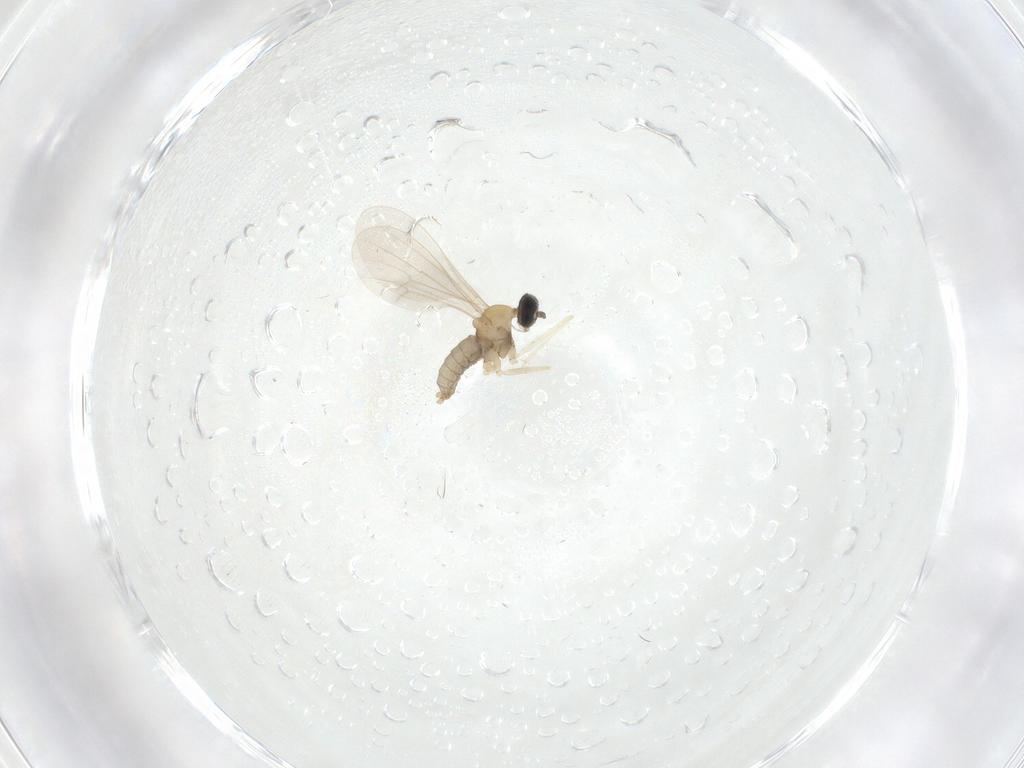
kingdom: Animalia
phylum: Arthropoda
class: Insecta
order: Diptera
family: Cecidomyiidae
